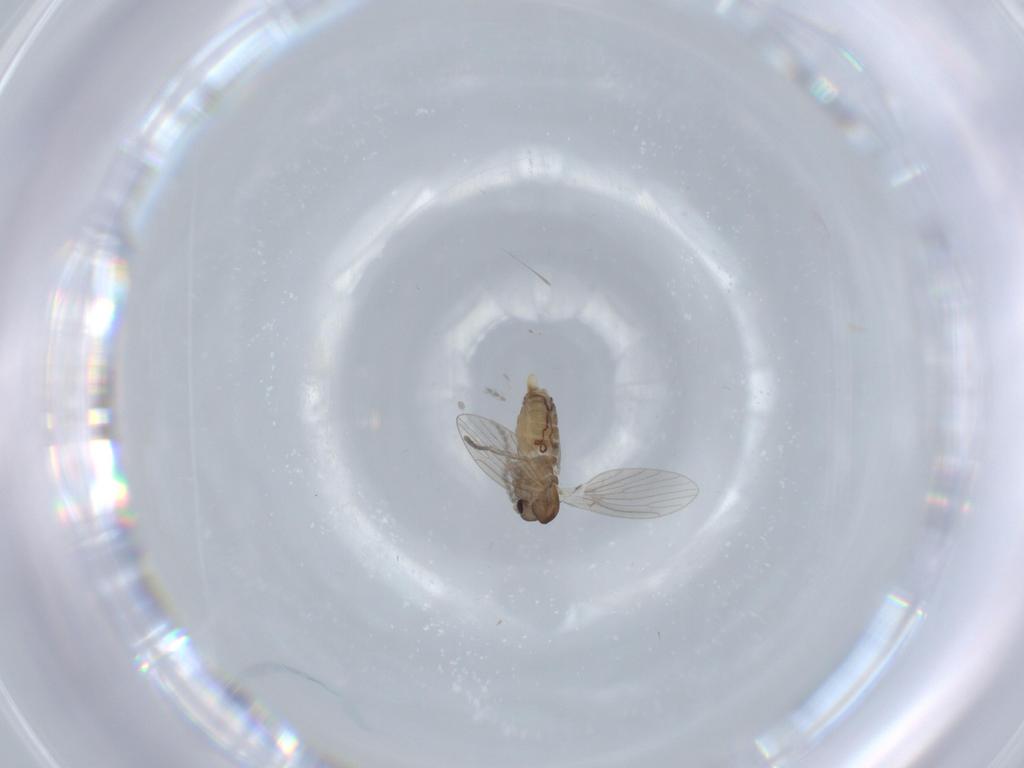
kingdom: Animalia
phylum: Arthropoda
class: Insecta
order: Diptera
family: Psychodidae
